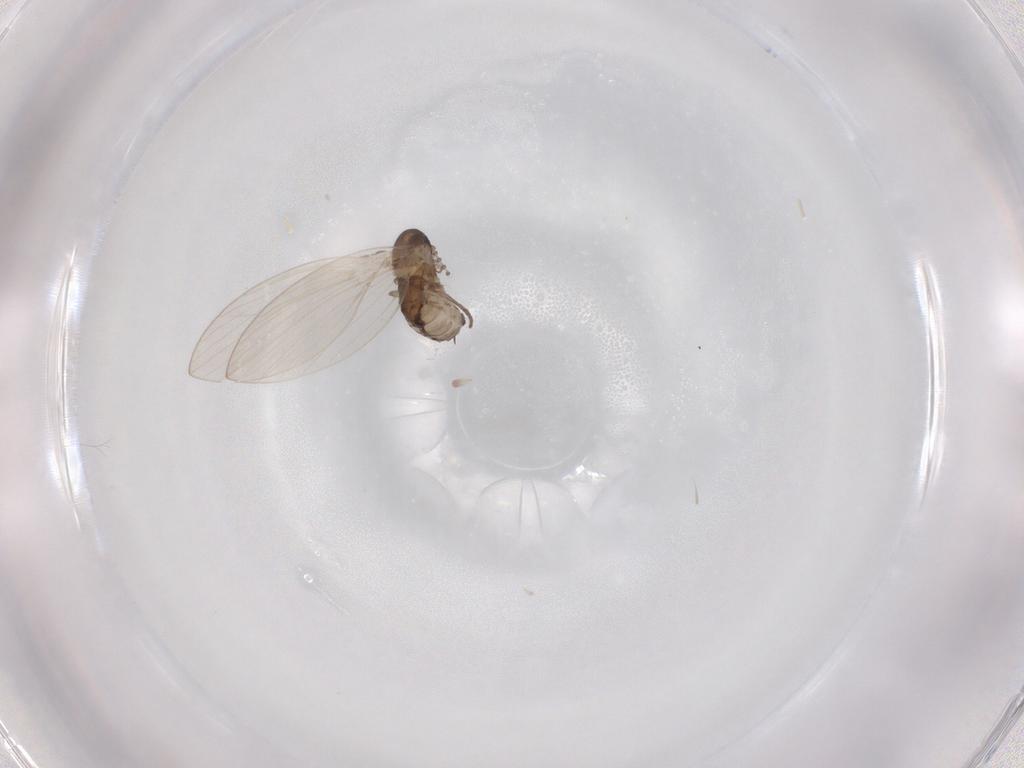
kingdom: Animalia
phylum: Arthropoda
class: Insecta
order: Diptera
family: Psychodidae
